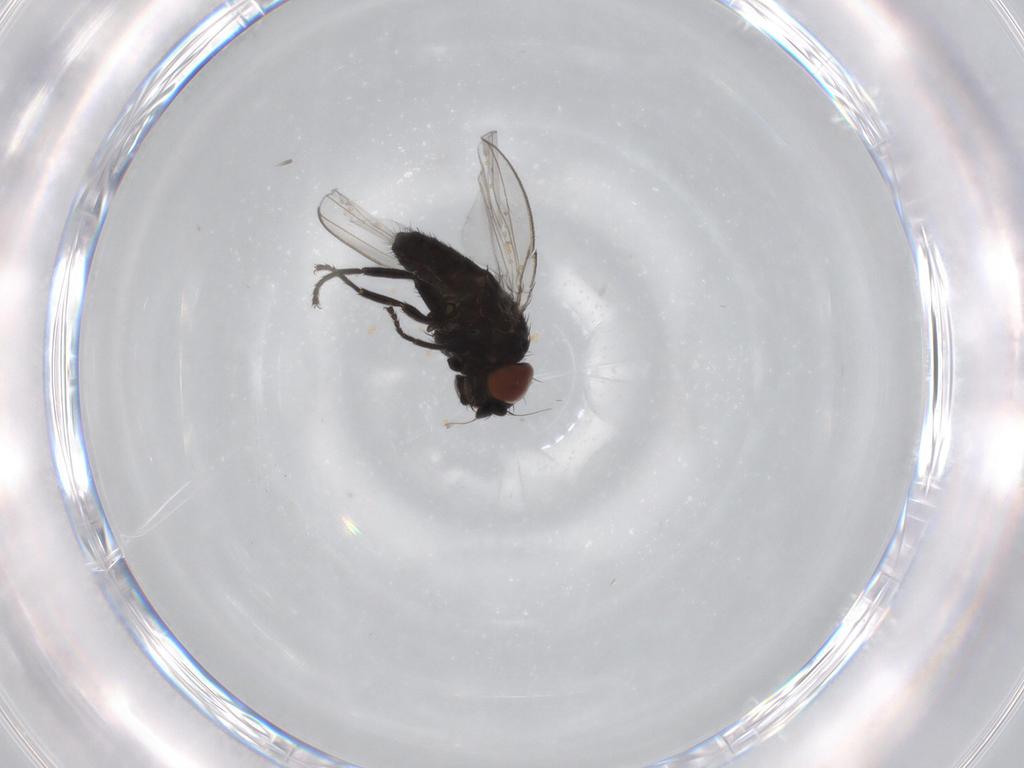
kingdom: Animalia
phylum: Arthropoda
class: Insecta
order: Diptera
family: Milichiidae
